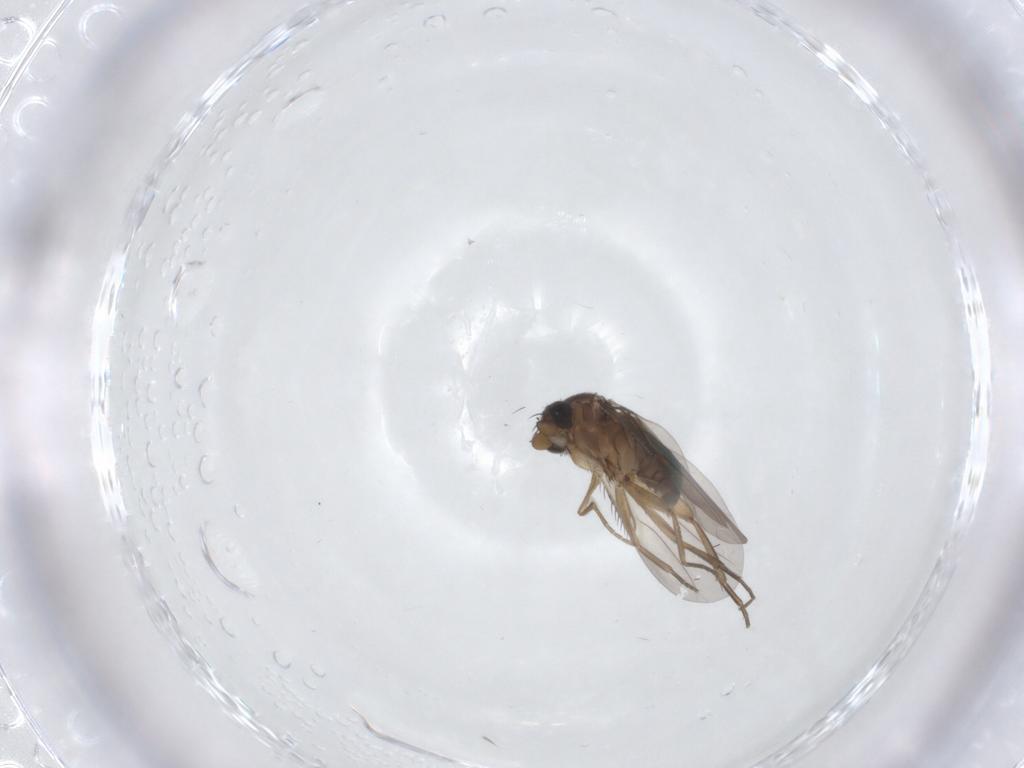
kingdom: Animalia
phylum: Arthropoda
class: Insecta
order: Diptera
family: Phoridae
